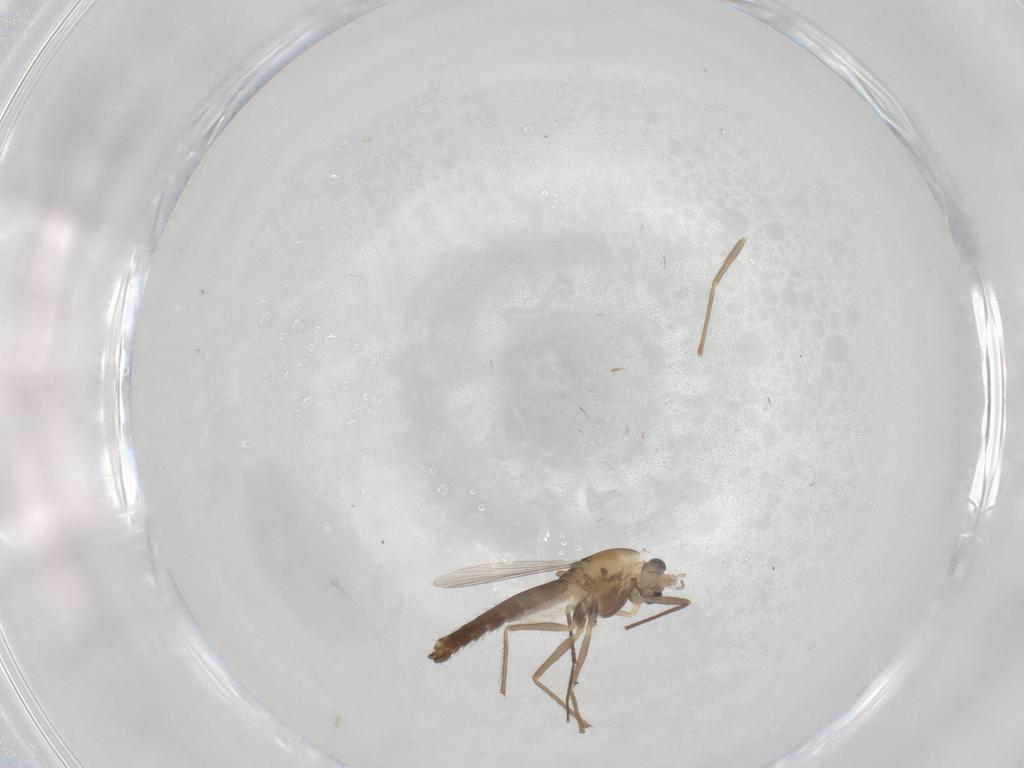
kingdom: Animalia
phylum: Arthropoda
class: Insecta
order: Diptera
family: Chironomidae
